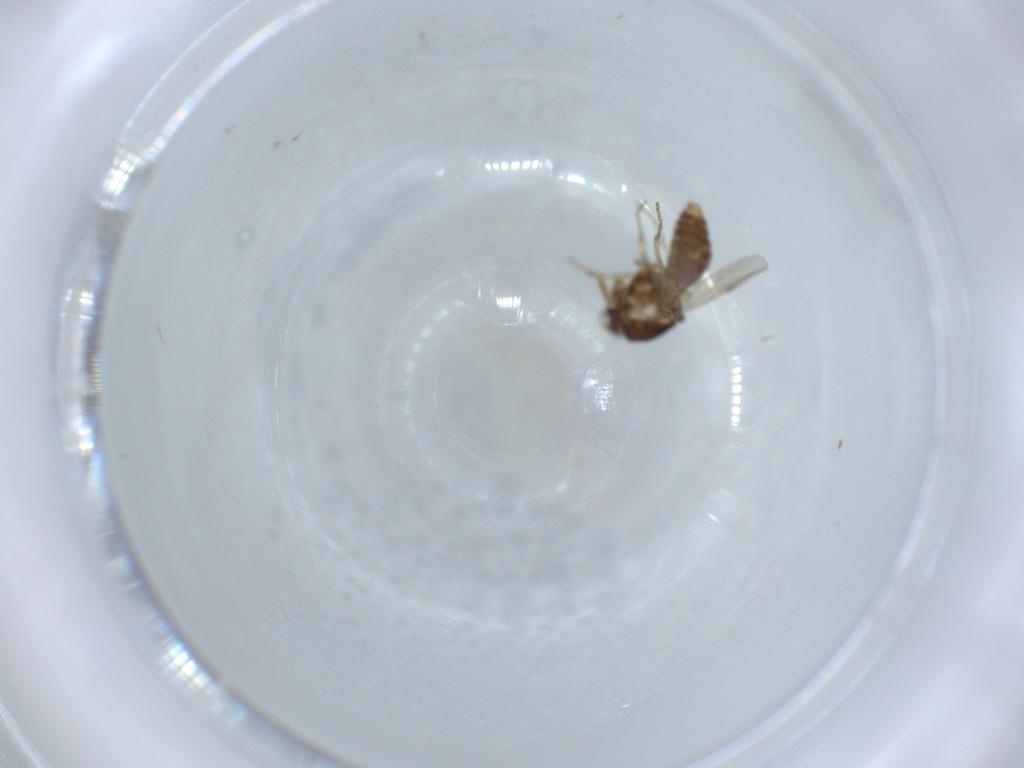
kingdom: Animalia
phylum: Arthropoda
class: Insecta
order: Diptera
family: Ceratopogonidae
